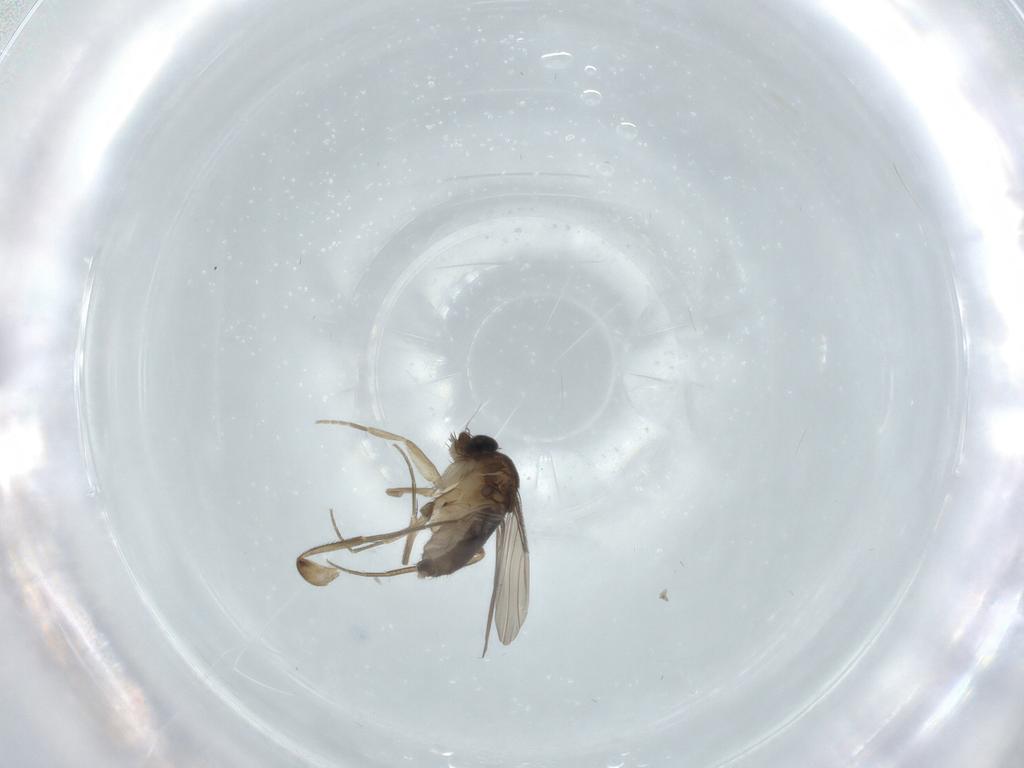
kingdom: Animalia
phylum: Arthropoda
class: Insecta
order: Diptera
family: Phoridae
